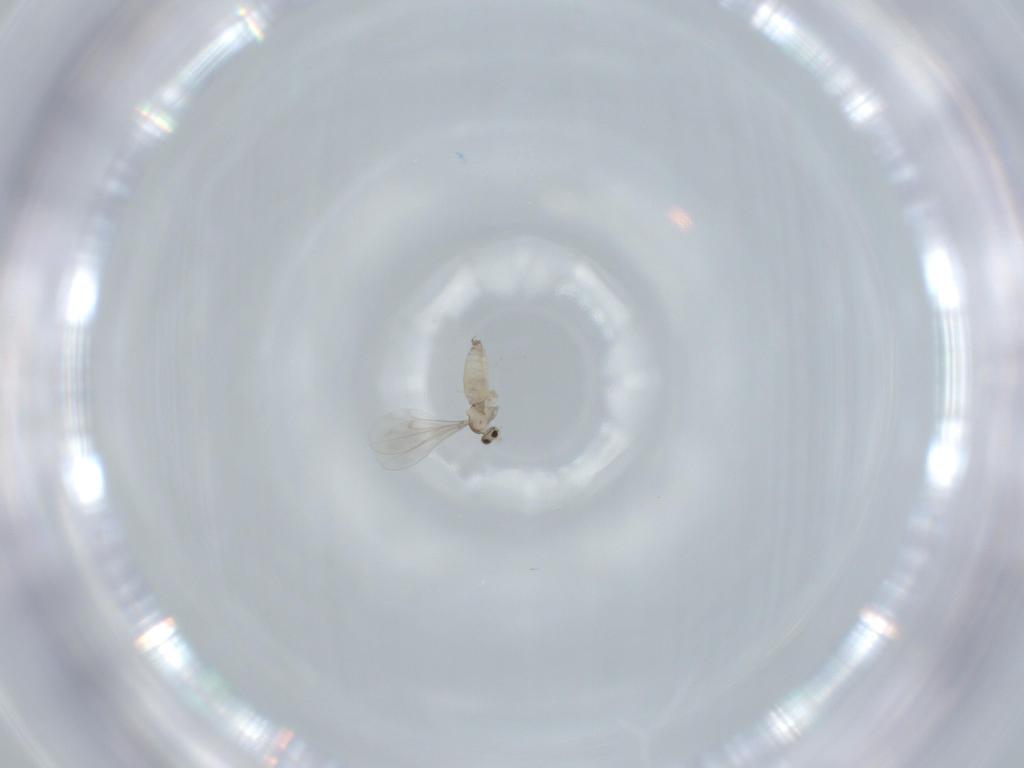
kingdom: Animalia
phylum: Arthropoda
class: Insecta
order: Diptera
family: Cecidomyiidae
